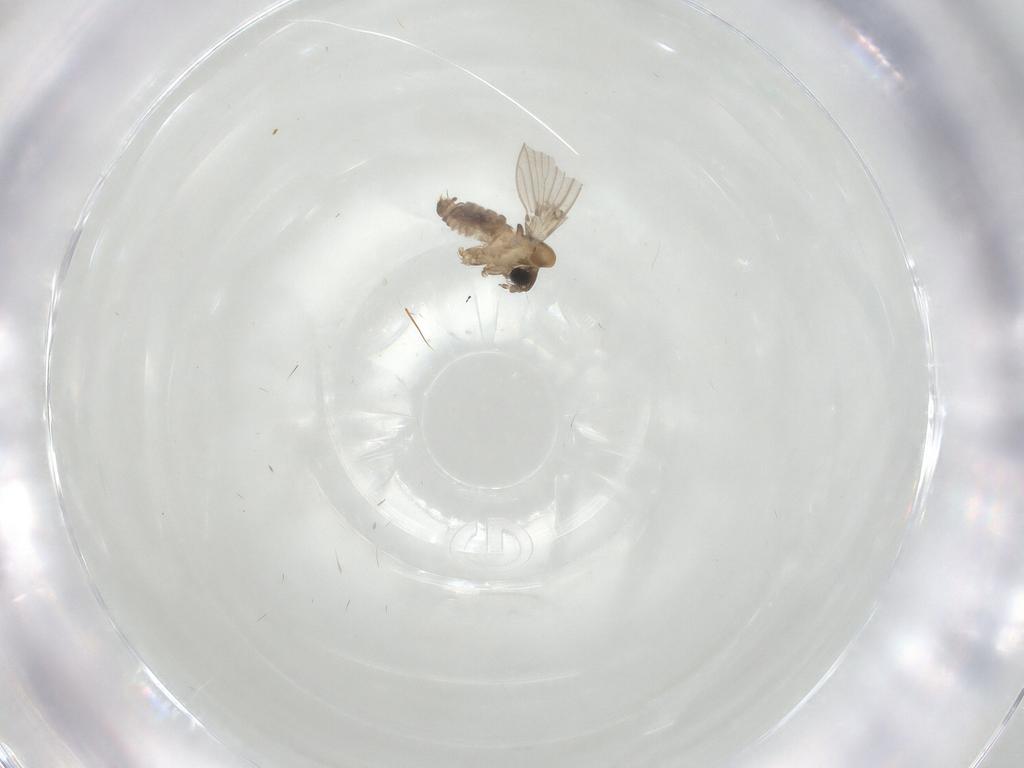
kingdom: Animalia
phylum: Arthropoda
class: Insecta
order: Diptera
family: Psychodidae
